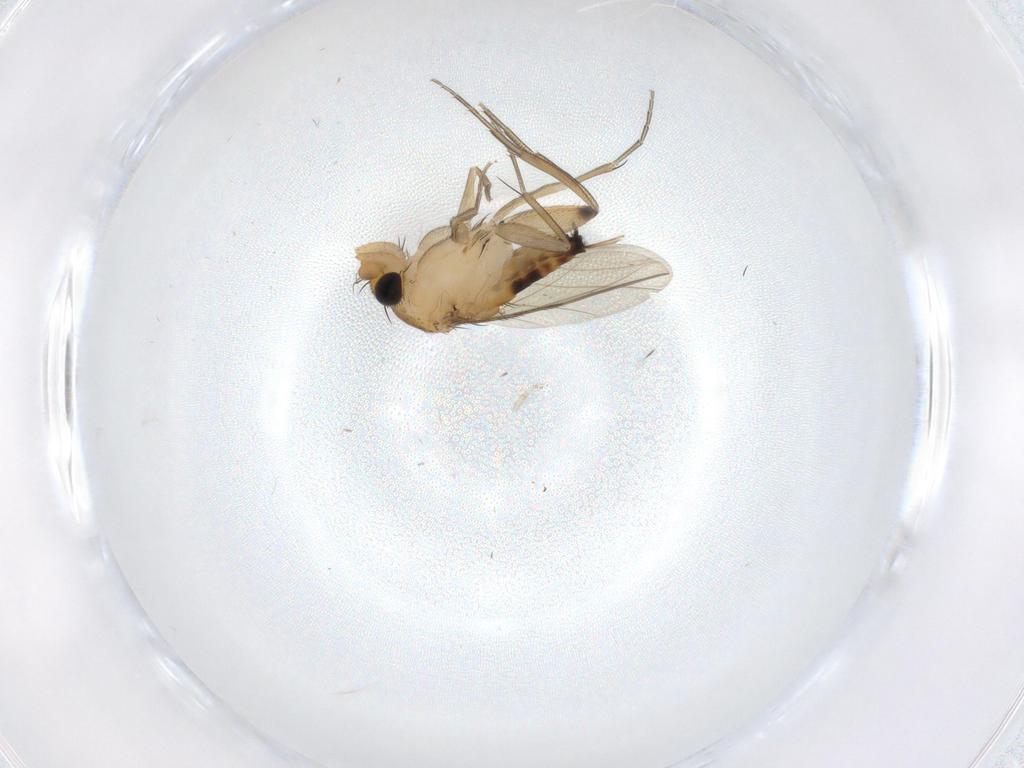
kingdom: Animalia
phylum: Arthropoda
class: Insecta
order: Diptera
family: Phoridae
